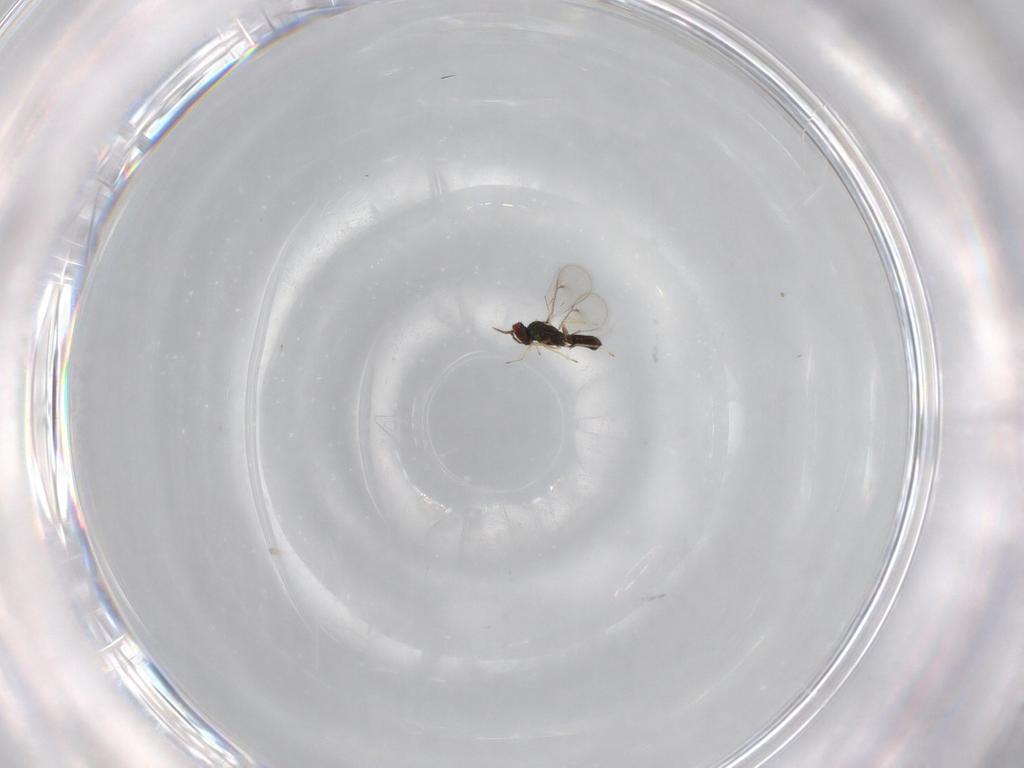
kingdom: Animalia
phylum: Arthropoda
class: Insecta
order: Hymenoptera
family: Eulophidae
